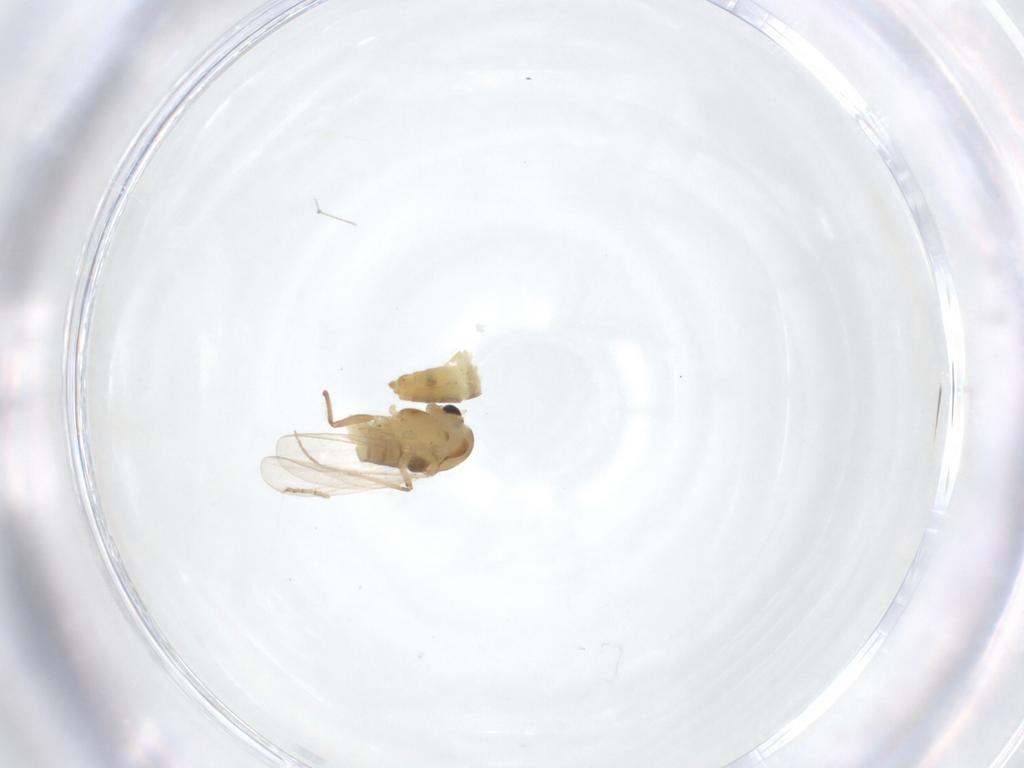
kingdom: Animalia
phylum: Arthropoda
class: Insecta
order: Diptera
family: Chironomidae
